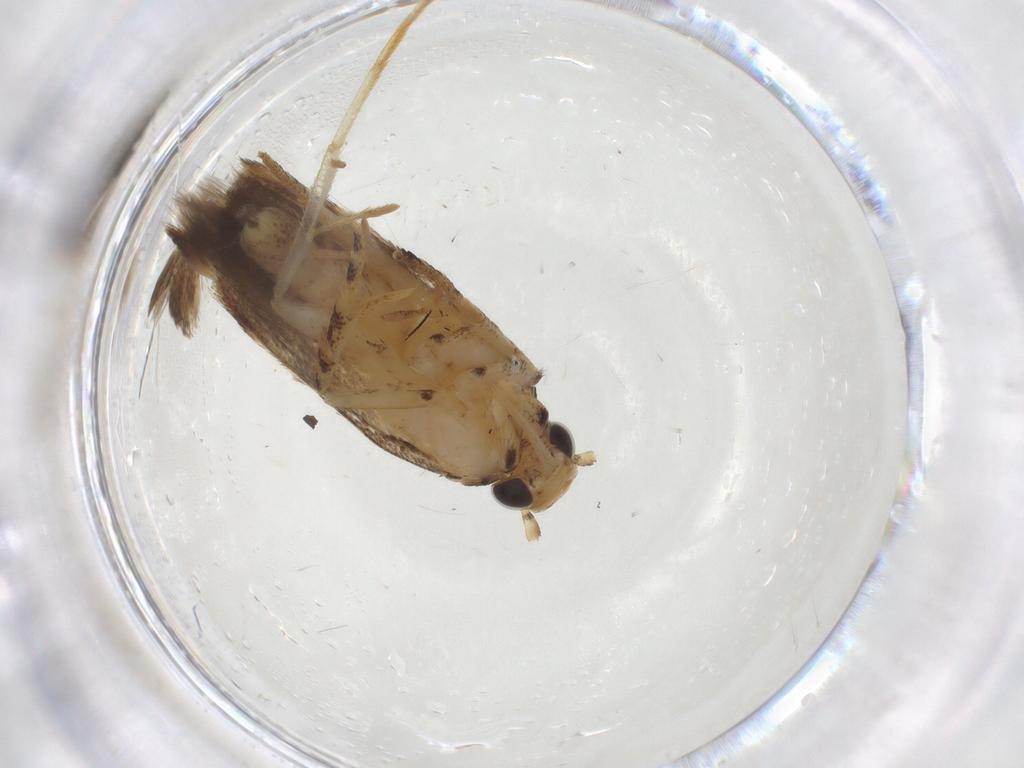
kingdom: Animalia
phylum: Arthropoda
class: Insecta
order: Lepidoptera
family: Gelechiidae
